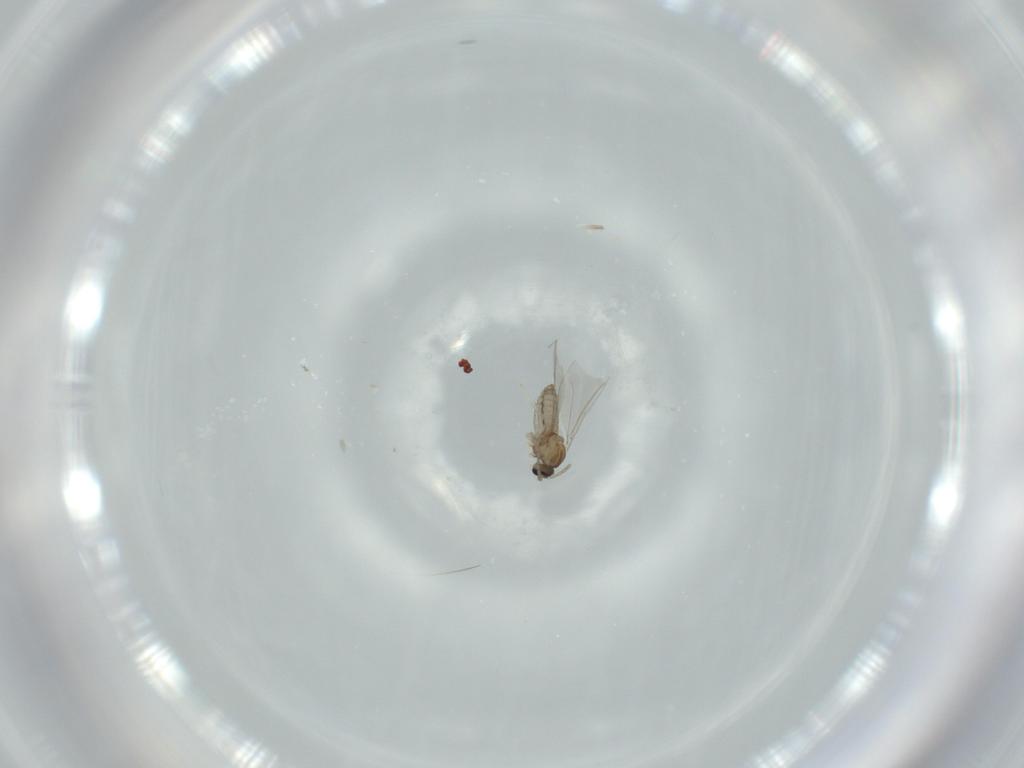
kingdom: Animalia
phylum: Arthropoda
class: Insecta
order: Diptera
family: Cecidomyiidae
